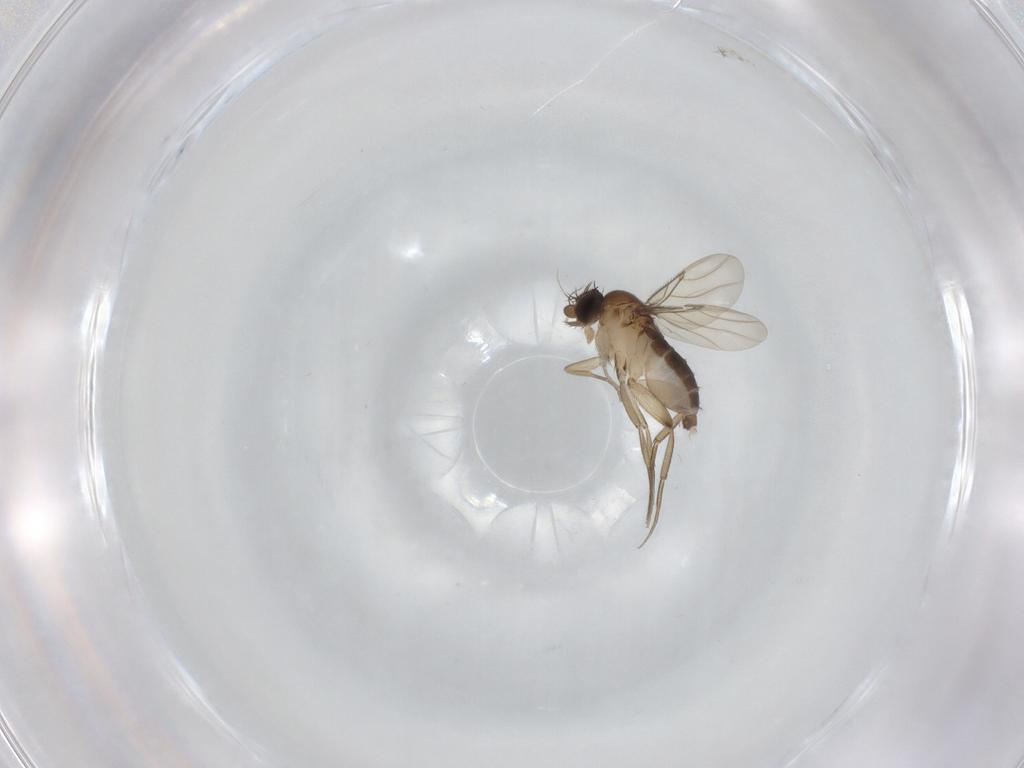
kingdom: Animalia
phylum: Arthropoda
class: Insecta
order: Diptera
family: Phoridae
